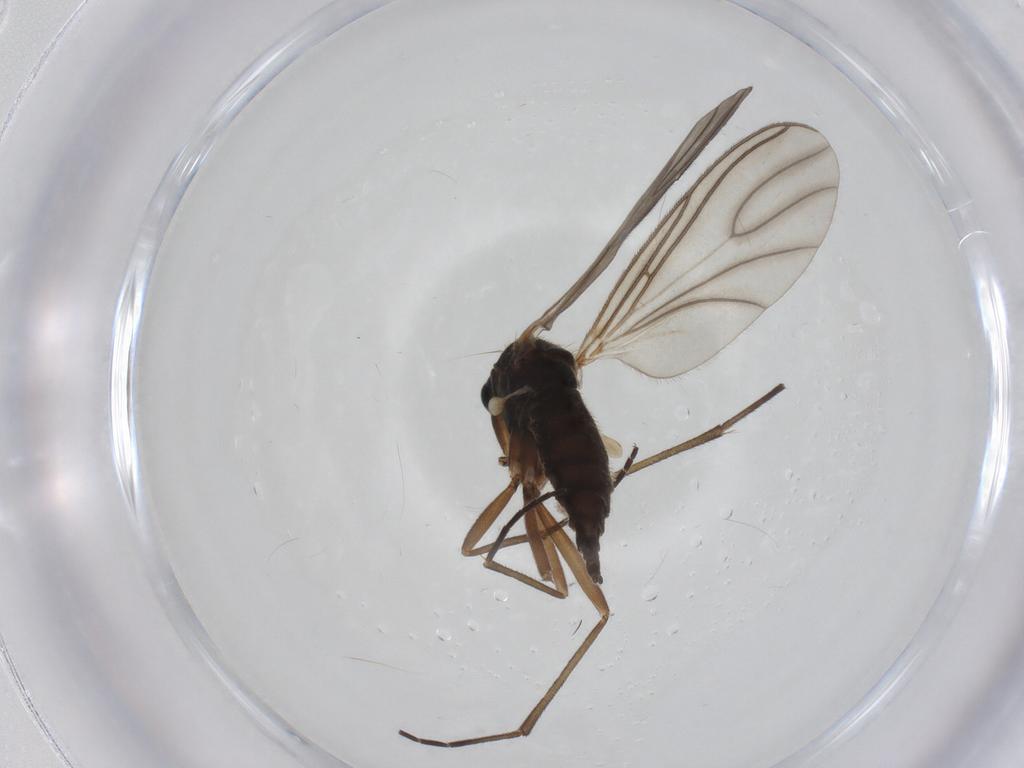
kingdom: Animalia
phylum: Arthropoda
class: Insecta
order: Diptera
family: Sciaridae
